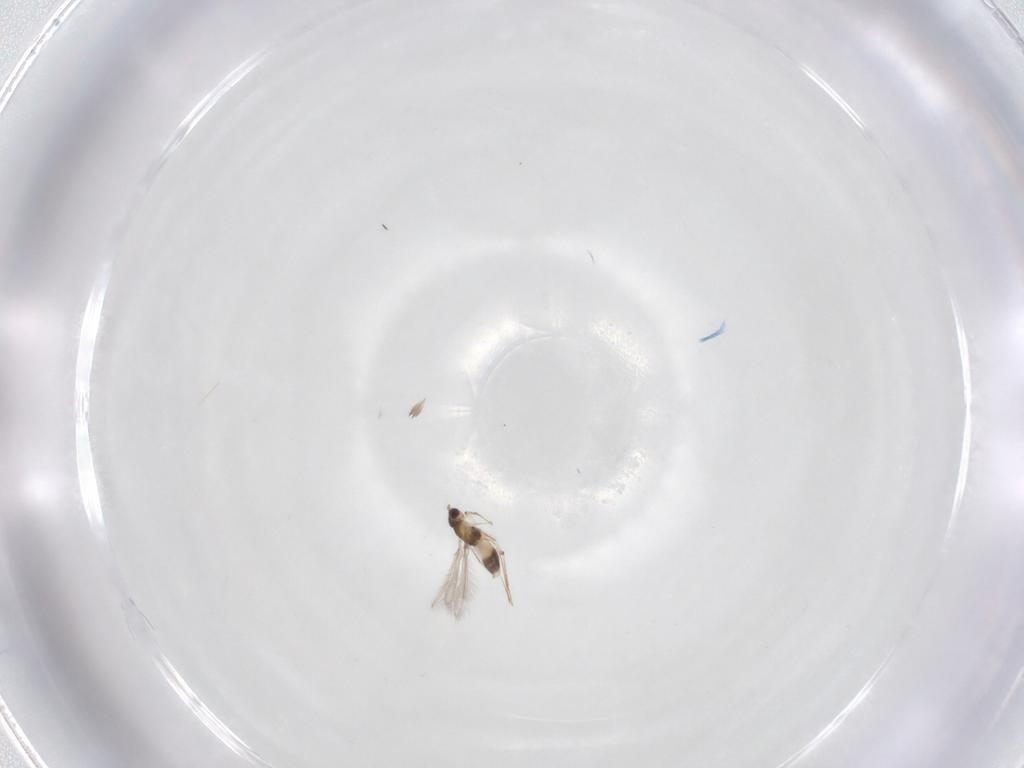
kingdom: Animalia
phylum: Arthropoda
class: Insecta
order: Hymenoptera
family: Mymaridae
